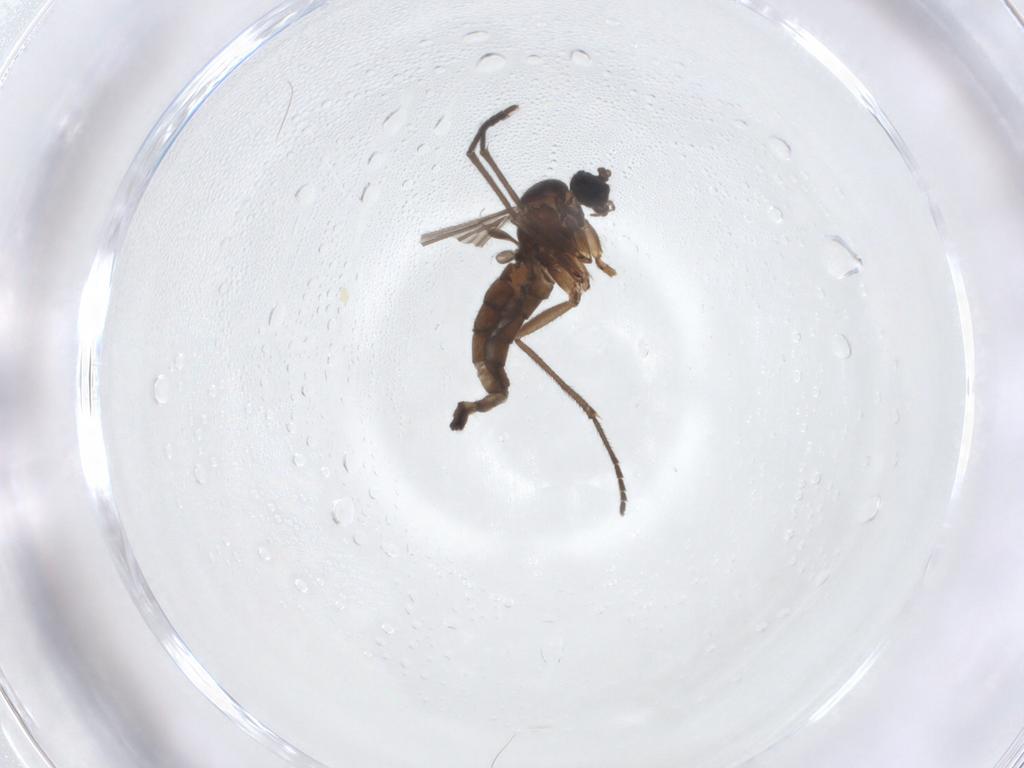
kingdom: Animalia
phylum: Arthropoda
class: Insecta
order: Diptera
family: Sciaridae
